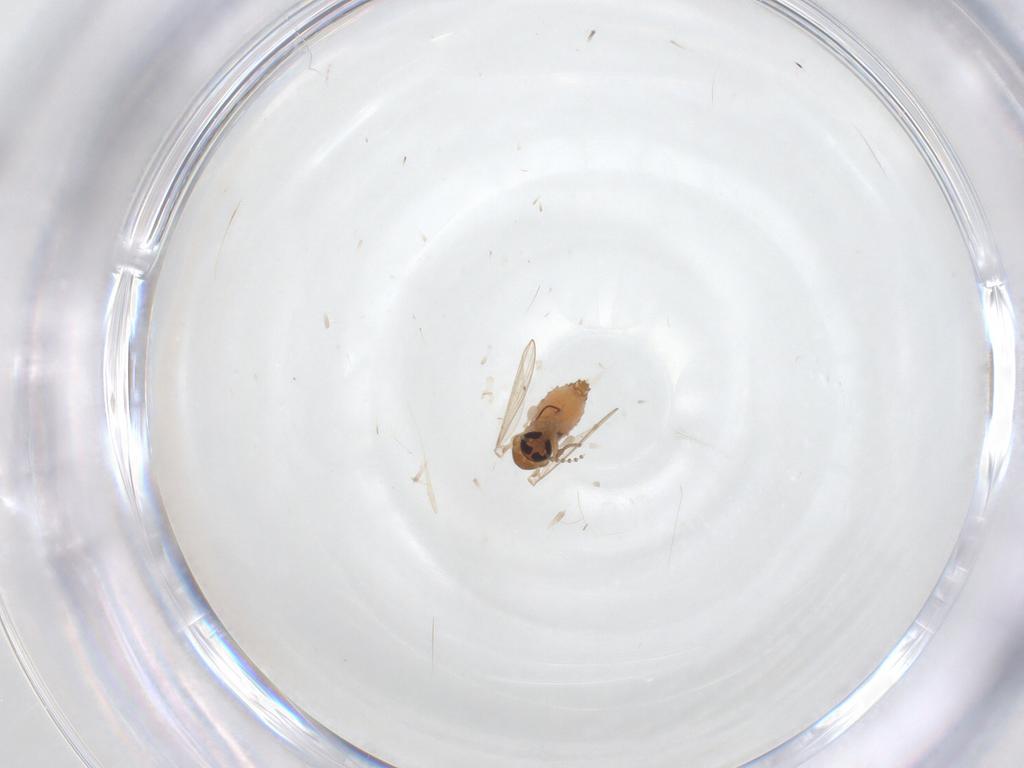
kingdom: Animalia
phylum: Arthropoda
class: Insecta
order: Diptera
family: Psychodidae
